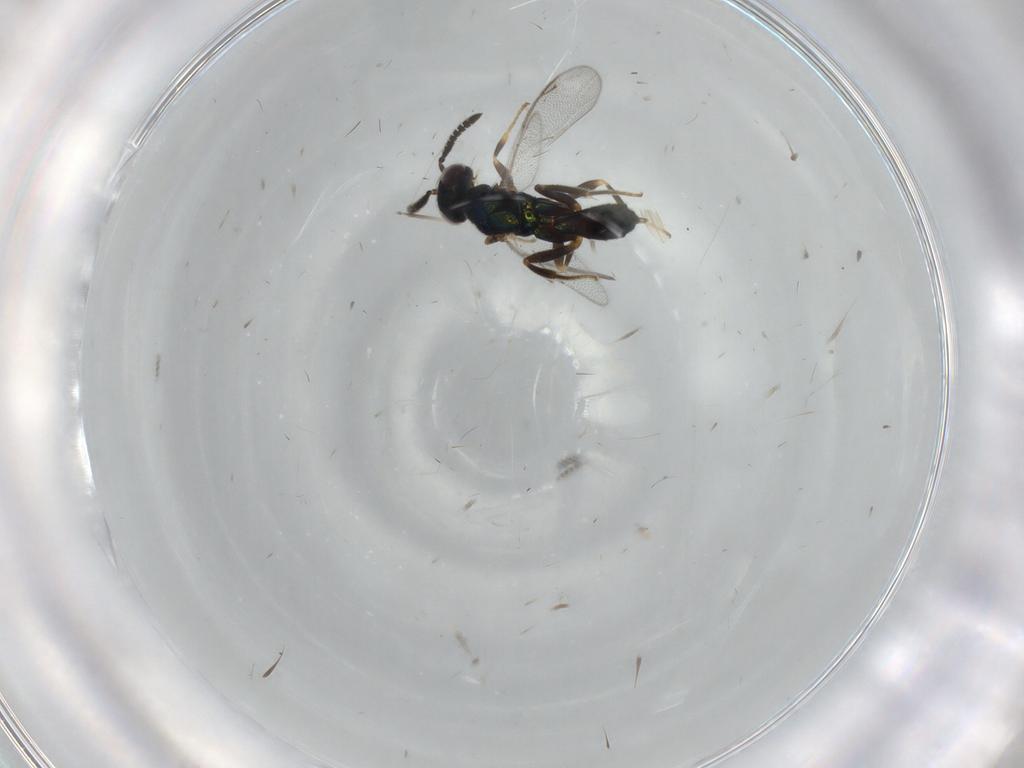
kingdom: Animalia
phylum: Arthropoda
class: Insecta
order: Hymenoptera
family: Cleonyminae
